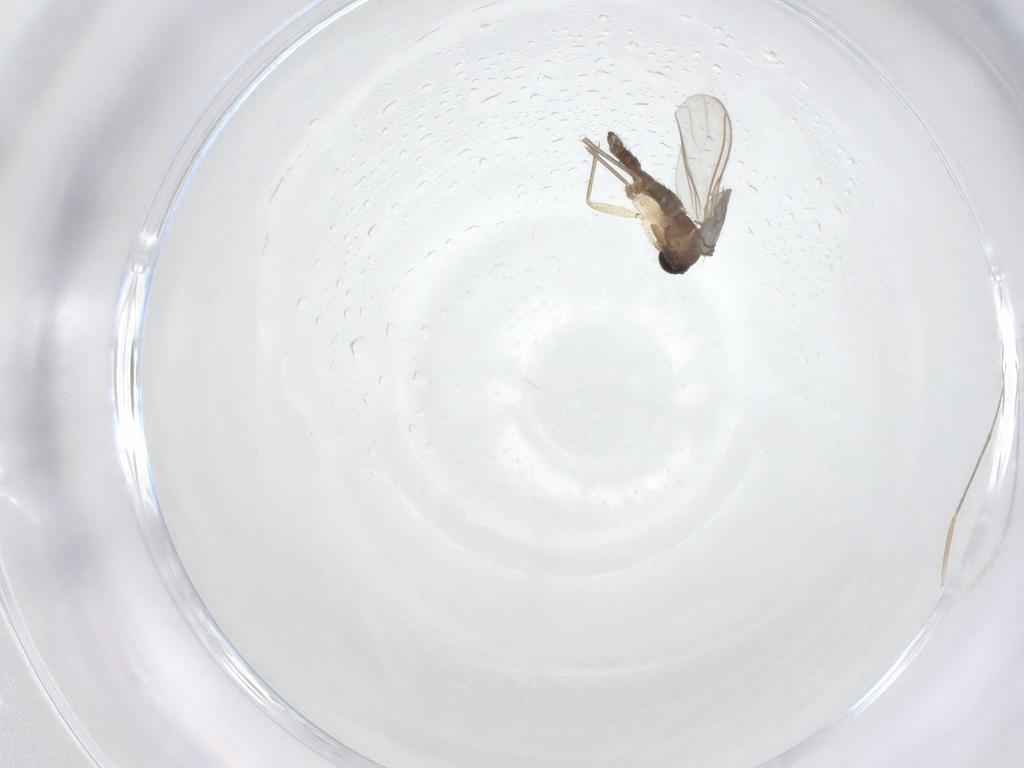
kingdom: Animalia
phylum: Arthropoda
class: Insecta
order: Diptera
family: Sciaridae
